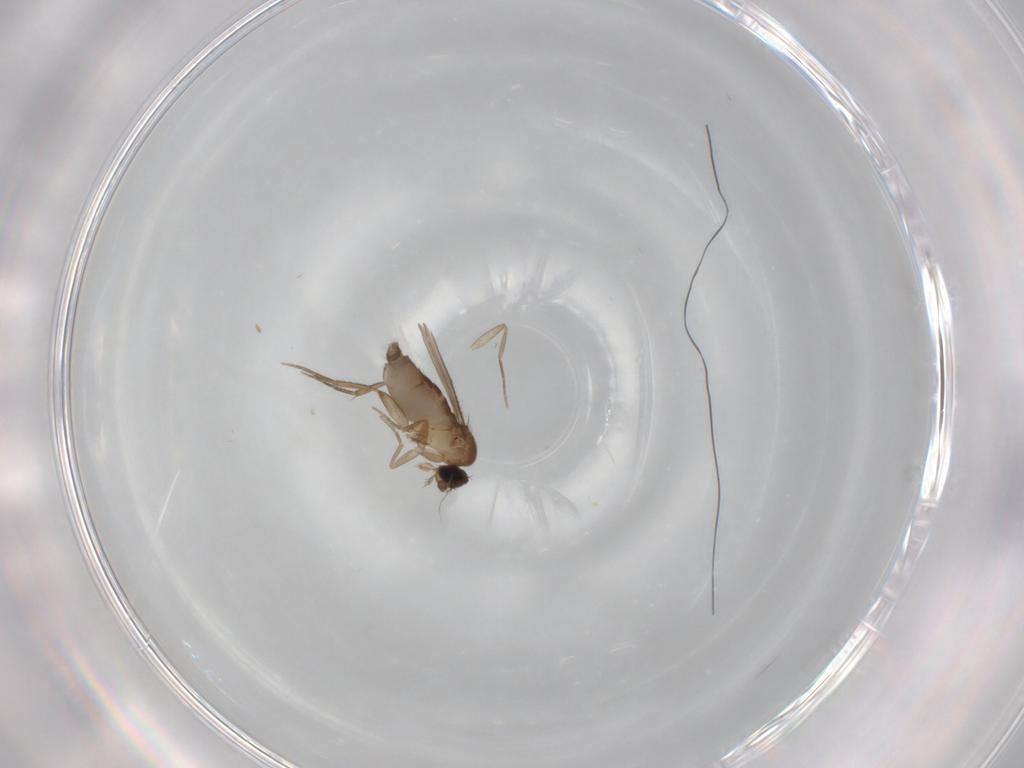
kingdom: Animalia
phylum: Arthropoda
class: Insecta
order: Diptera
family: Phoridae
